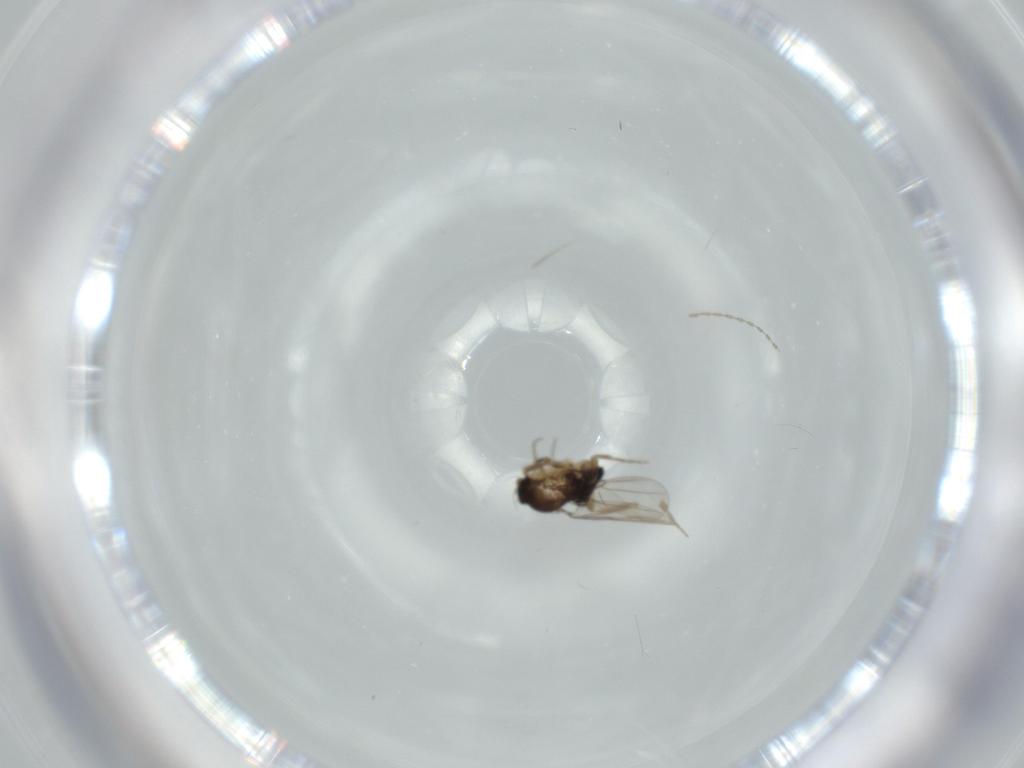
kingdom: Animalia
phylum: Arthropoda
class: Insecta
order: Diptera
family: Cecidomyiidae
